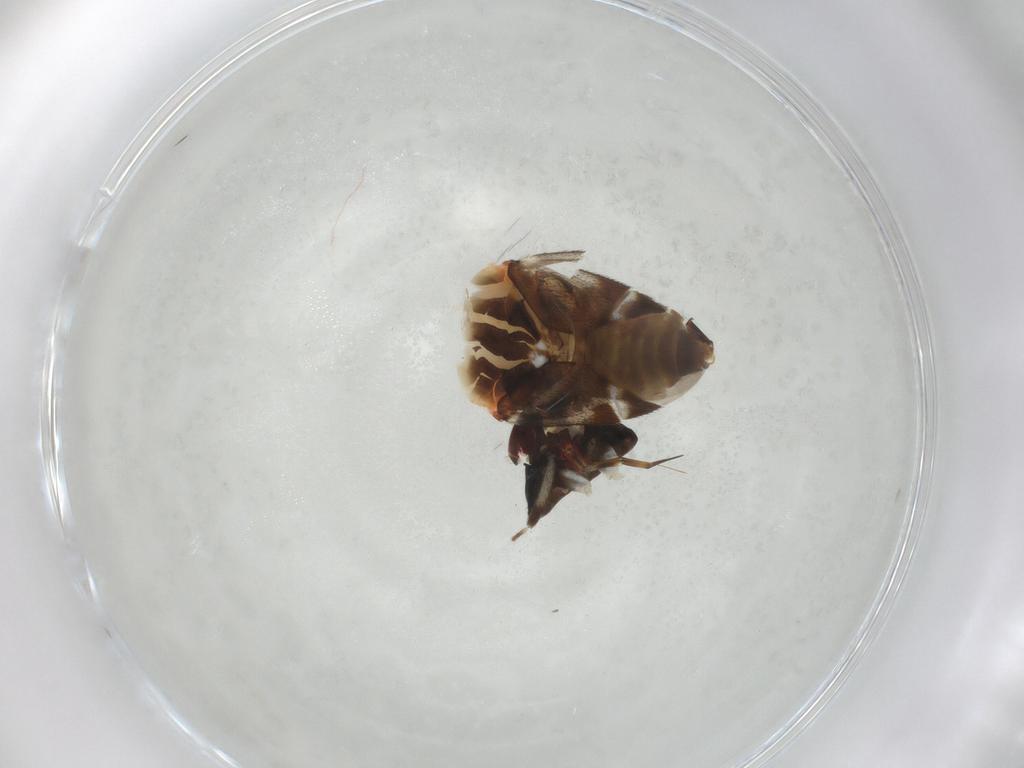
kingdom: Animalia
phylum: Arthropoda
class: Insecta
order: Hemiptera
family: Miridae
